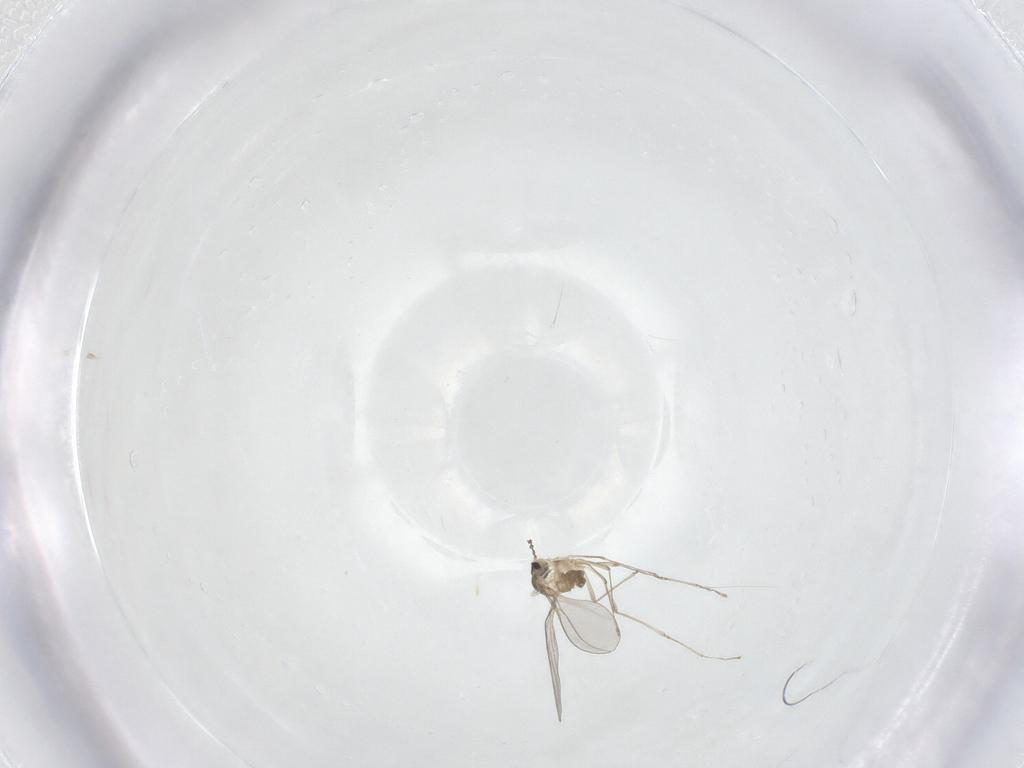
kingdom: Animalia
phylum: Arthropoda
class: Insecta
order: Diptera
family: Cecidomyiidae
